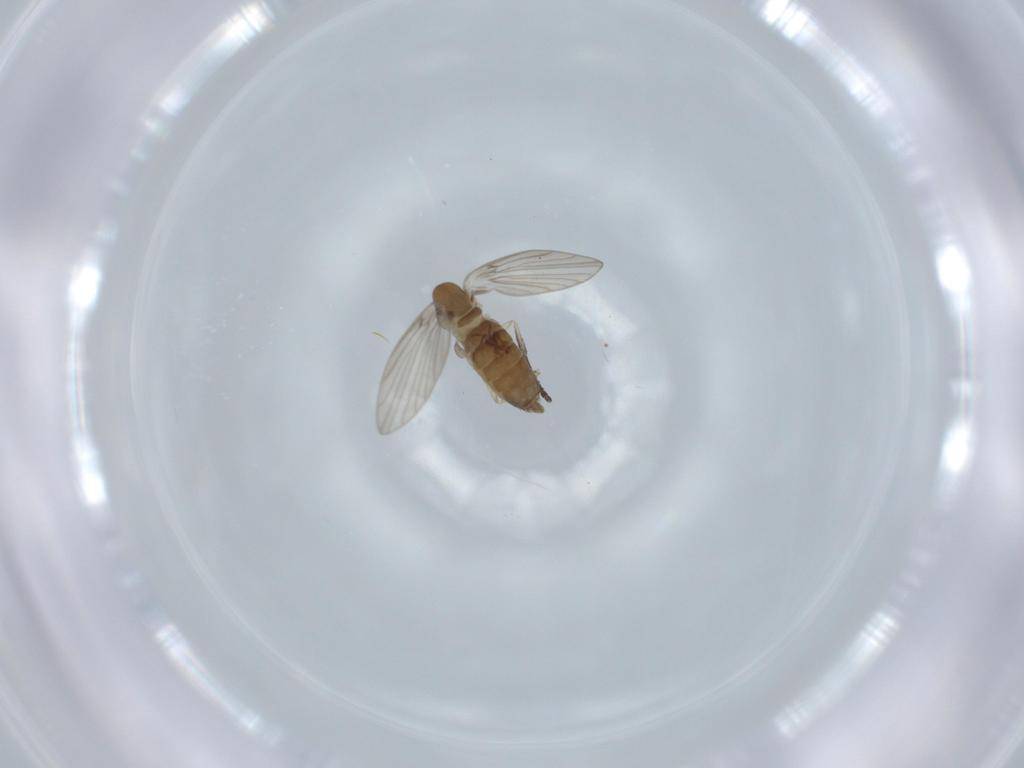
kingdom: Animalia
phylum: Arthropoda
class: Insecta
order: Diptera
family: Psychodidae
